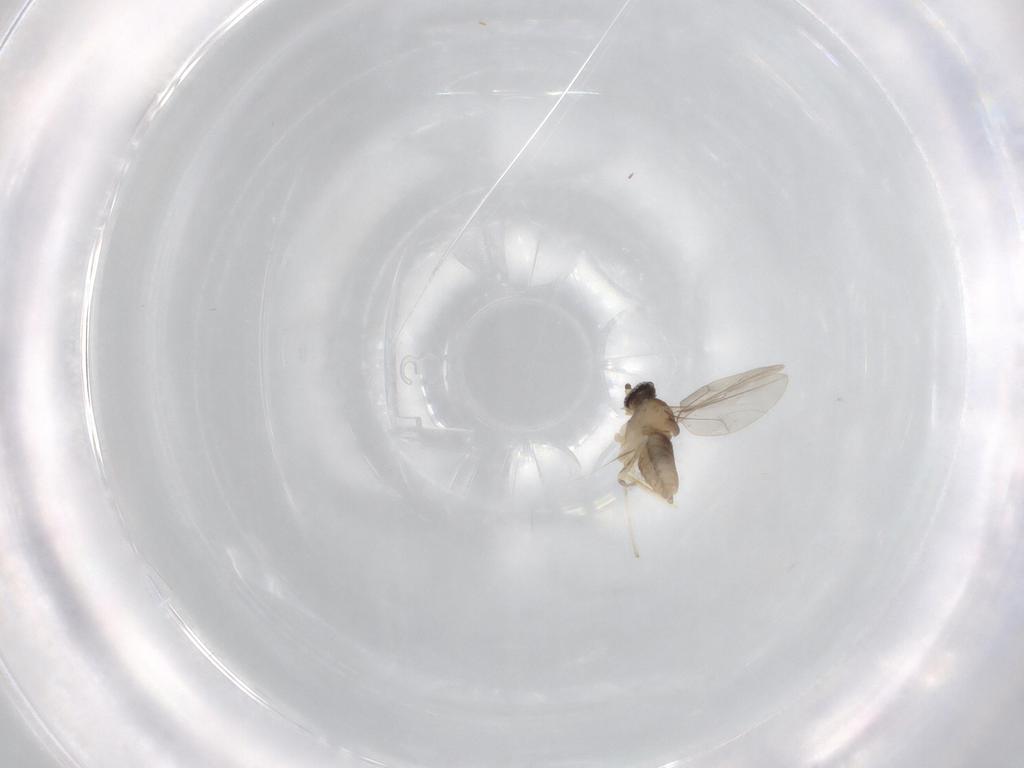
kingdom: Animalia
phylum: Arthropoda
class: Insecta
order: Diptera
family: Cecidomyiidae
